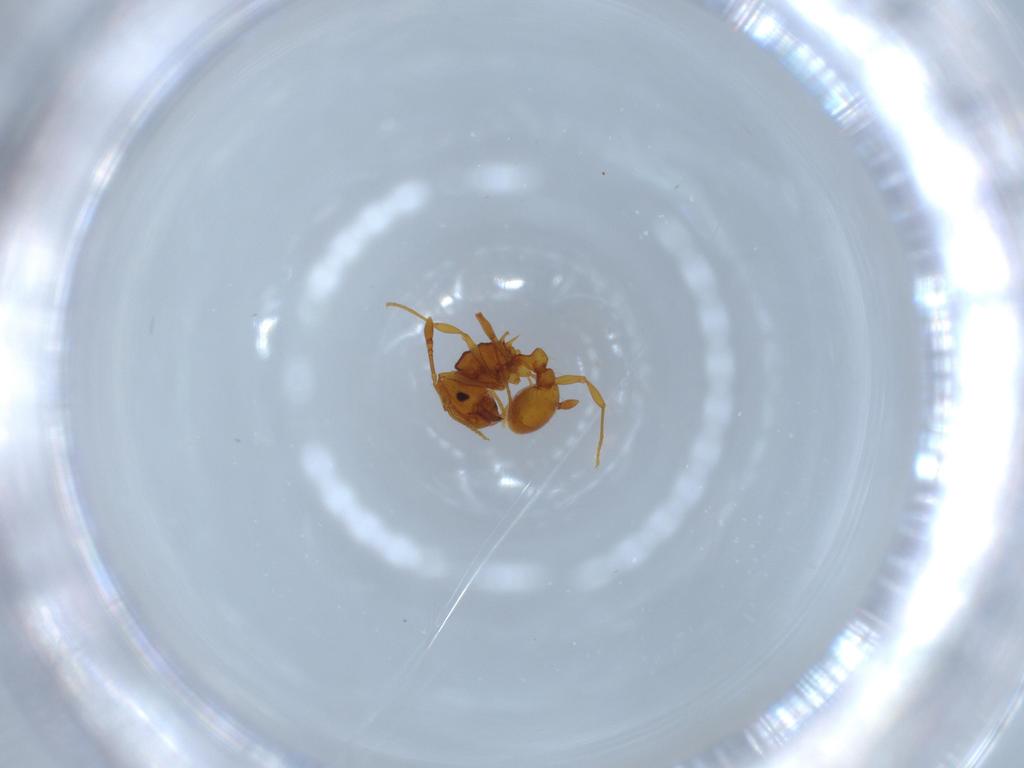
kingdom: Animalia
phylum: Arthropoda
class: Insecta
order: Hymenoptera
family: Formicidae
